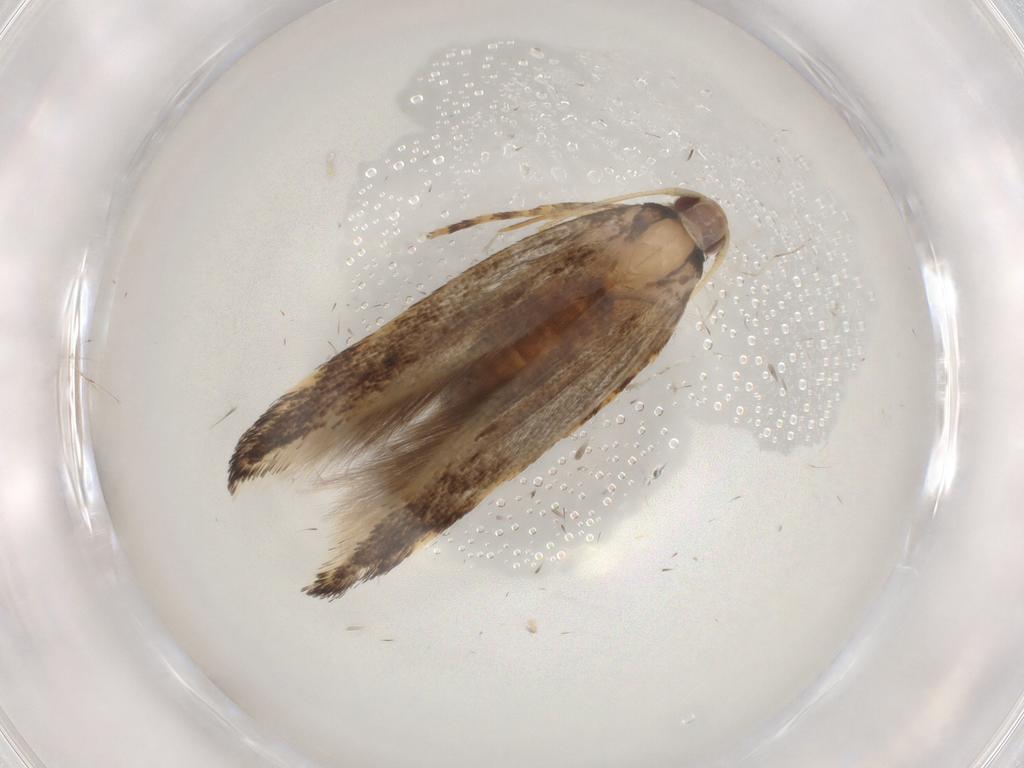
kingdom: Animalia
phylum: Arthropoda
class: Insecta
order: Lepidoptera
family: Cosmopterigidae
